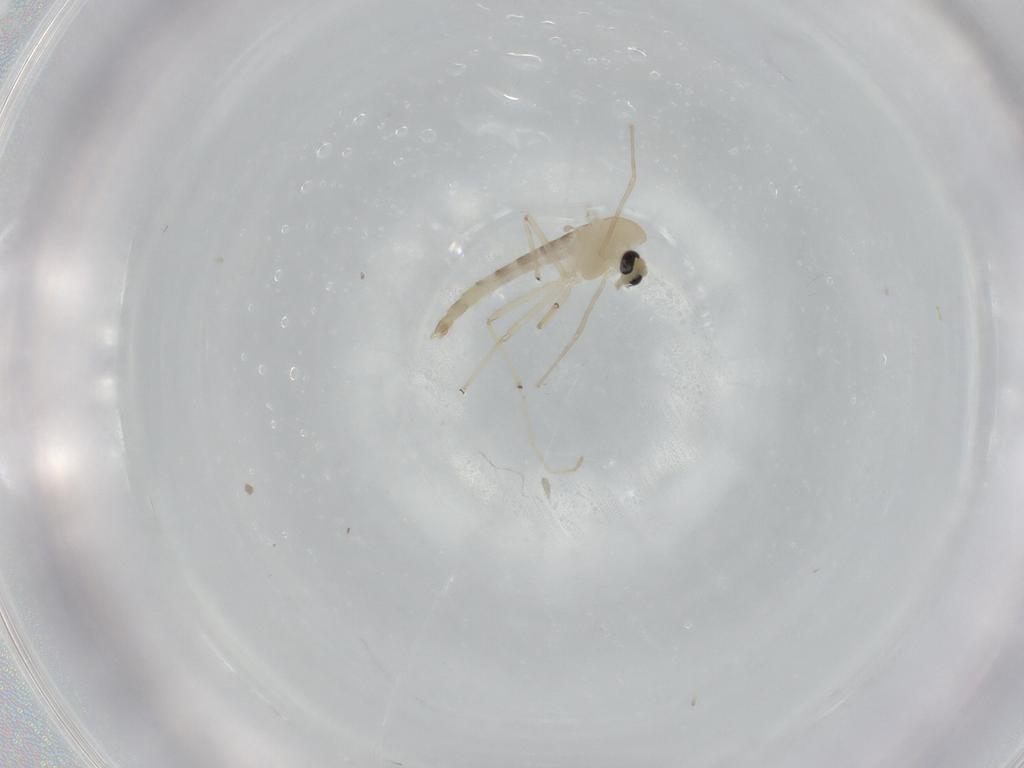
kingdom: Animalia
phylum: Arthropoda
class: Insecta
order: Diptera
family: Chironomidae
